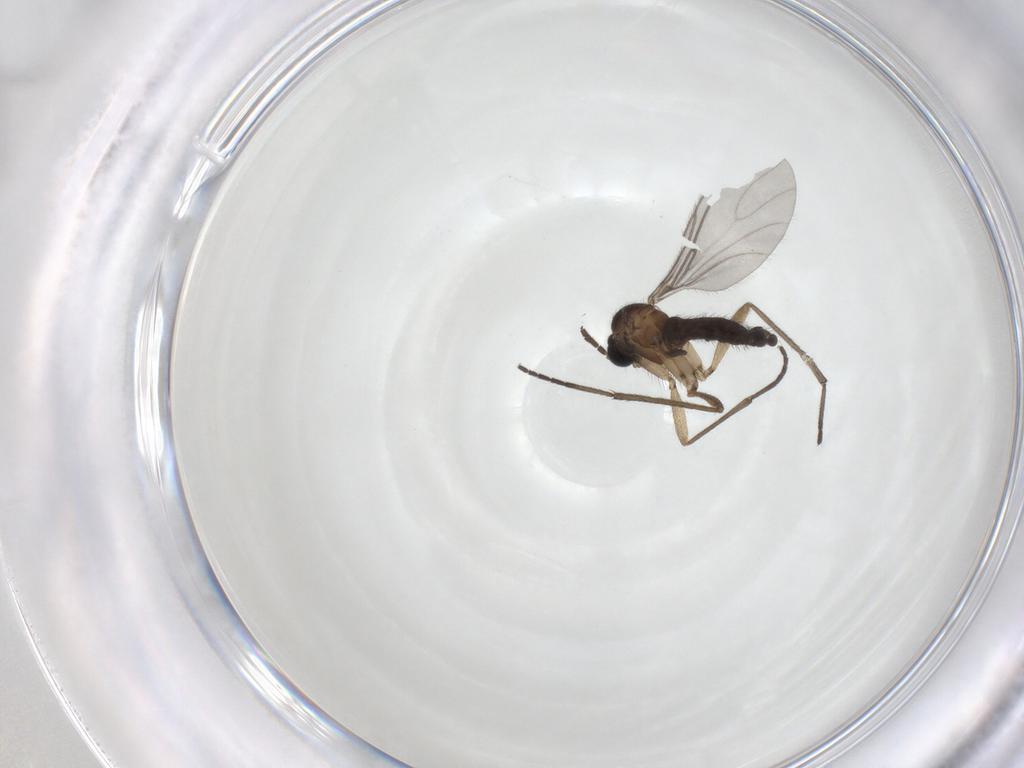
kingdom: Animalia
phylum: Arthropoda
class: Insecta
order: Diptera
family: Sciaridae
